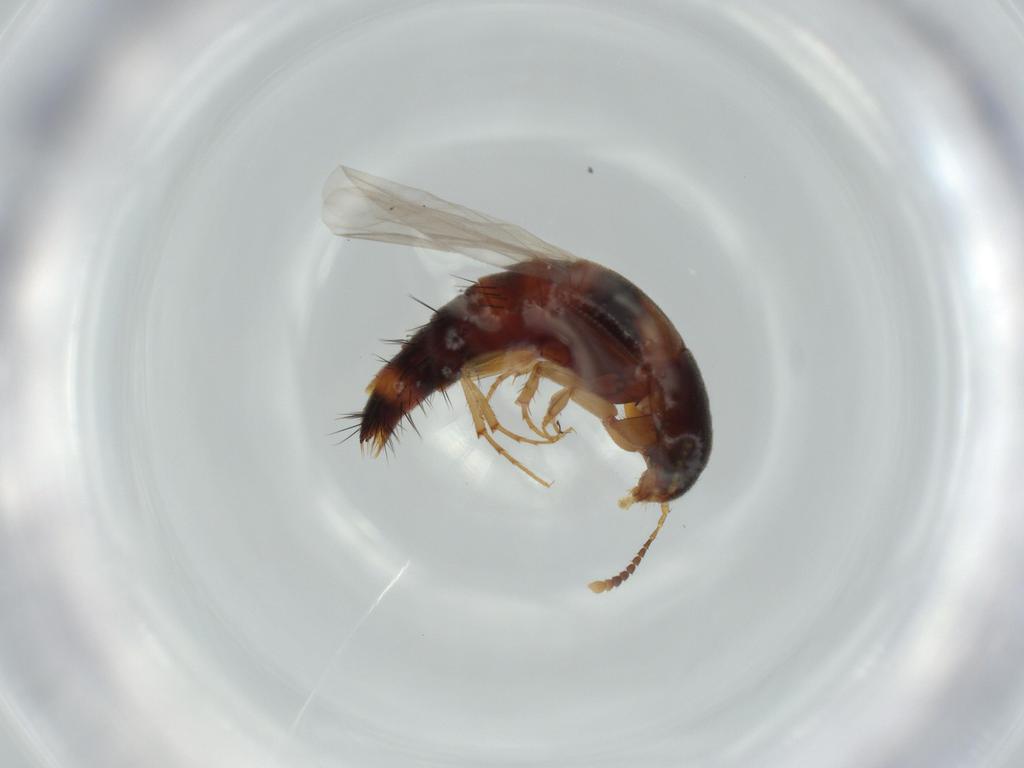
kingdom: Animalia
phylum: Arthropoda
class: Insecta
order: Coleoptera
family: Staphylinidae
